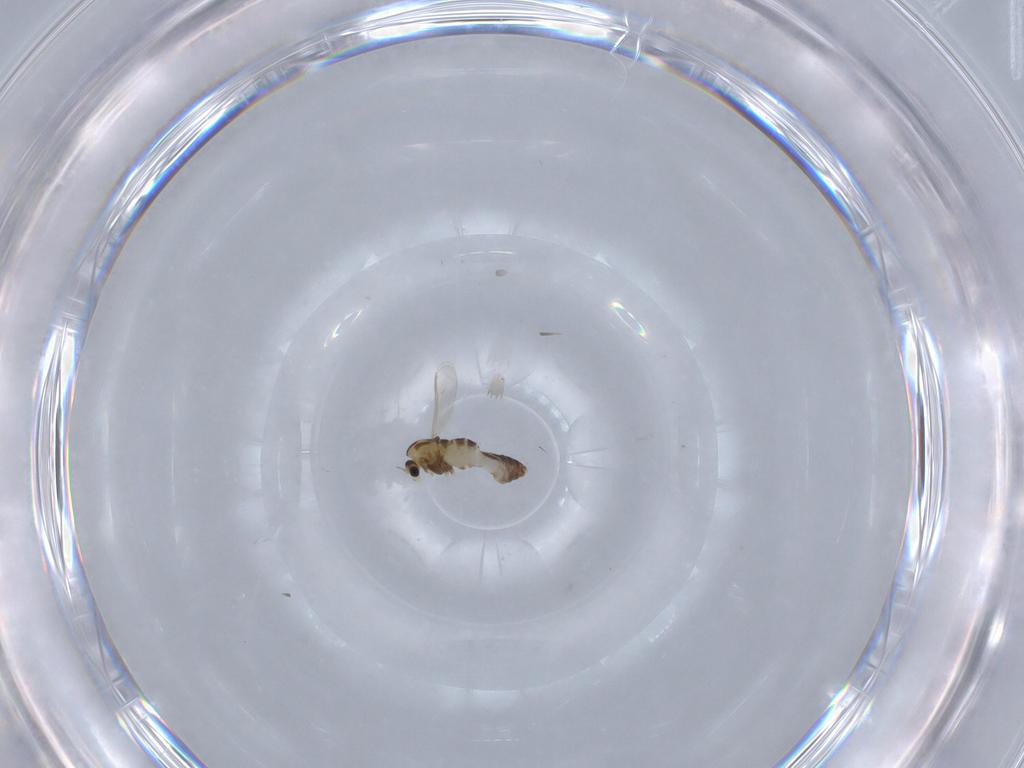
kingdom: Animalia
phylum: Arthropoda
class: Insecta
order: Diptera
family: Chironomidae
